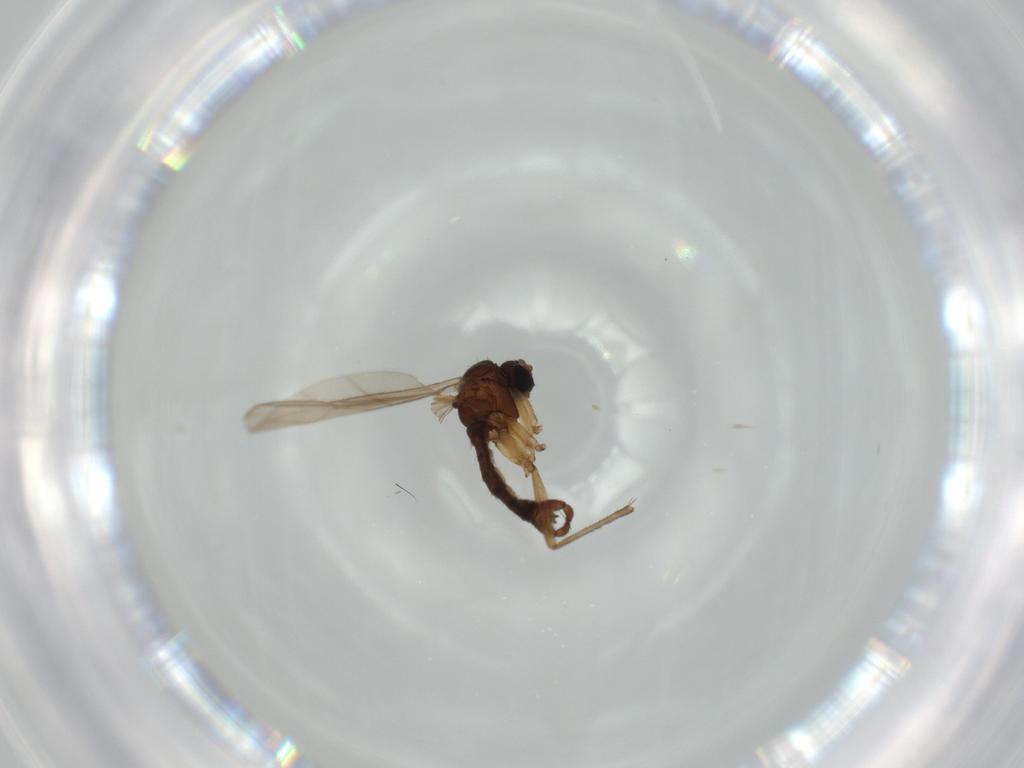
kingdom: Animalia
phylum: Arthropoda
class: Insecta
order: Diptera
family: Sciaridae
